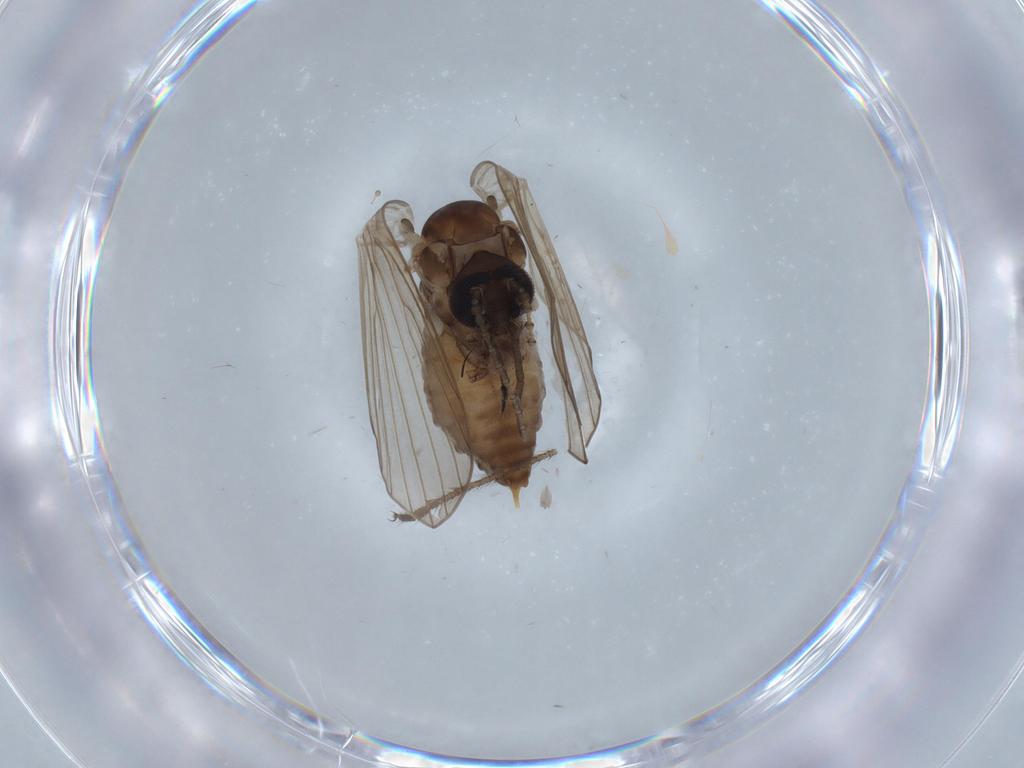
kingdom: Animalia
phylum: Arthropoda
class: Insecta
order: Diptera
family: Psychodidae
